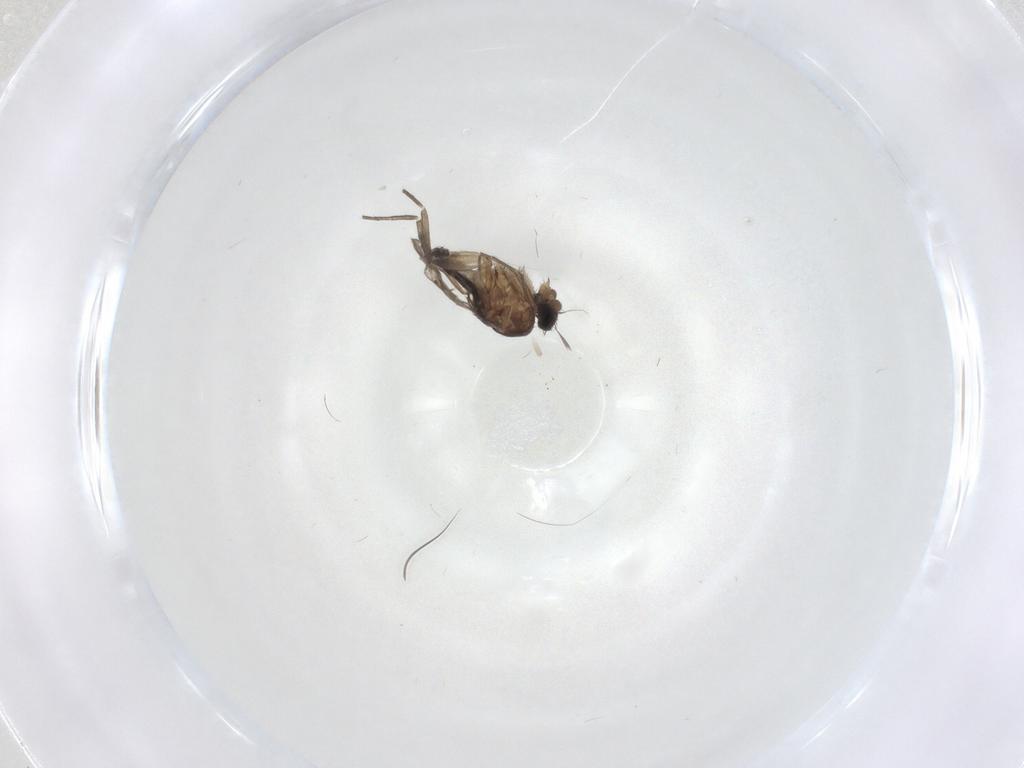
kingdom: Animalia
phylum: Arthropoda
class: Insecta
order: Diptera
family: Phoridae
